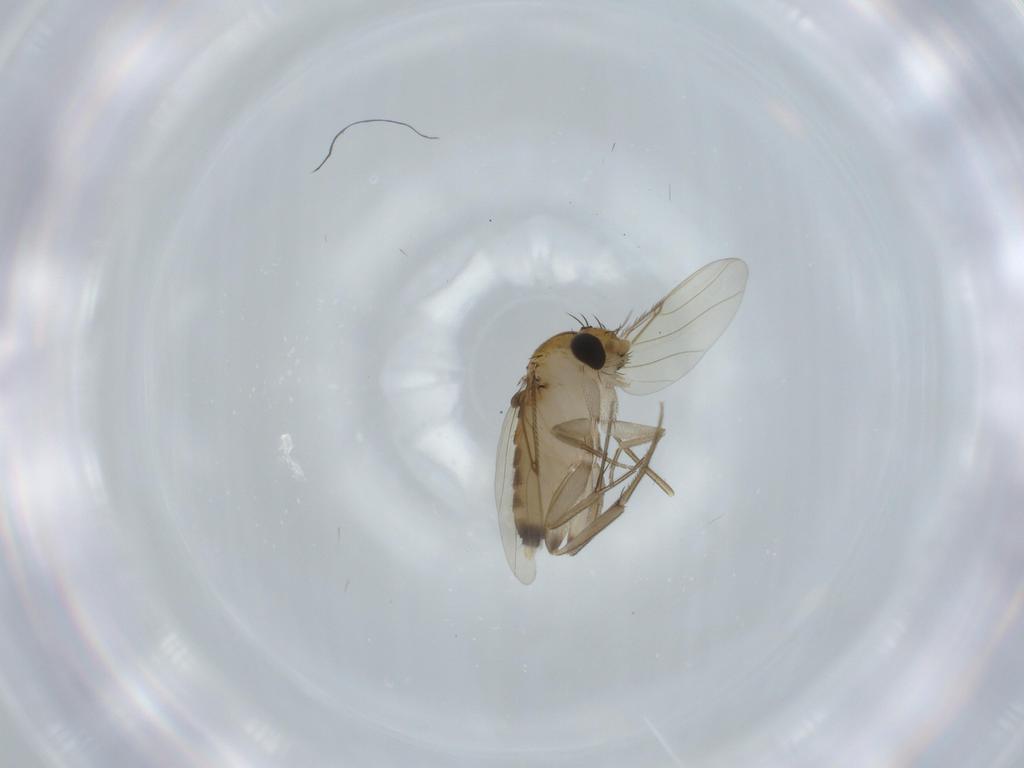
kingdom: Animalia
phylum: Arthropoda
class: Insecta
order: Diptera
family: Phoridae
